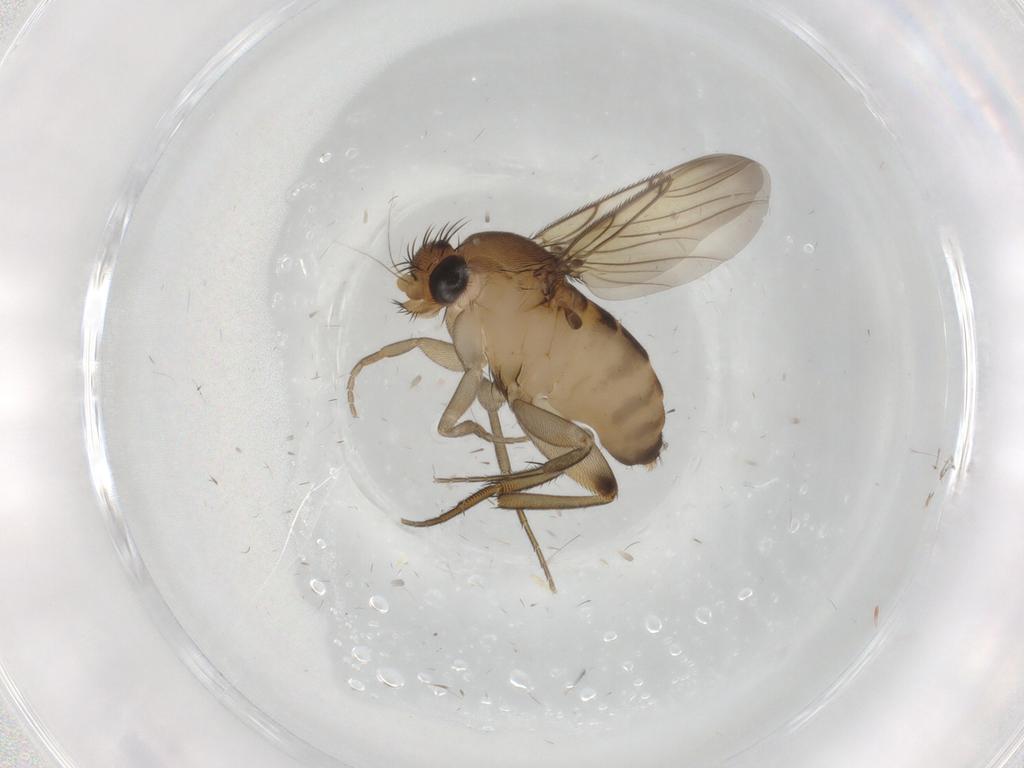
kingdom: Animalia
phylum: Arthropoda
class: Insecta
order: Diptera
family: Phoridae
